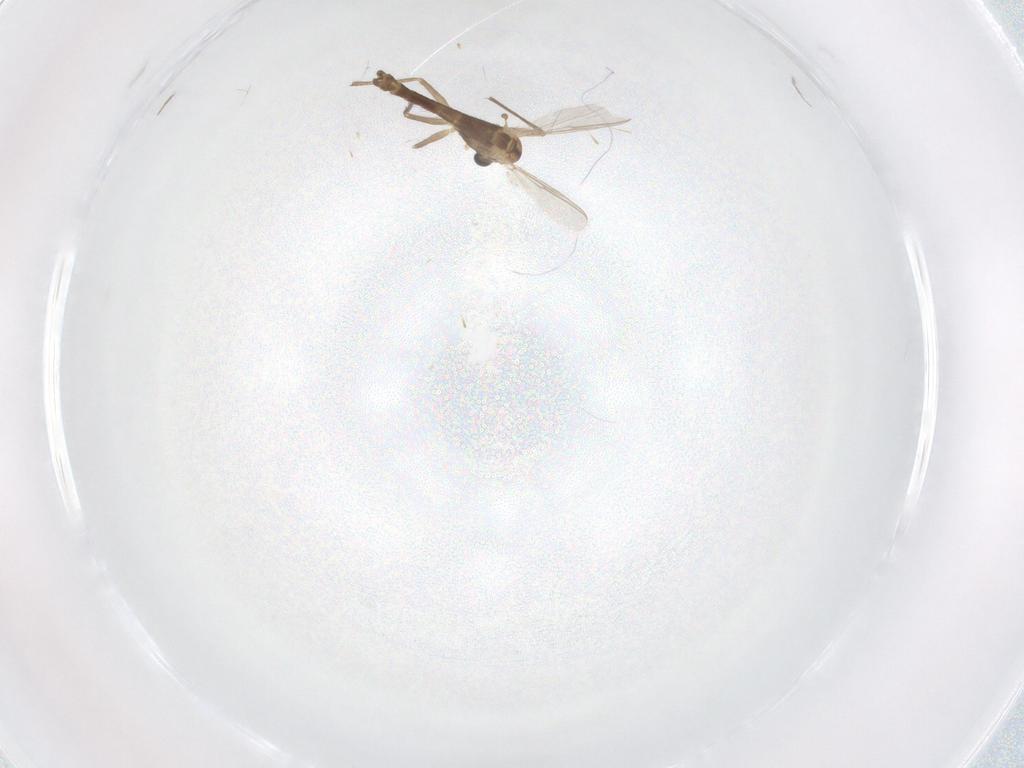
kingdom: Animalia
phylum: Arthropoda
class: Insecta
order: Diptera
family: Chironomidae
